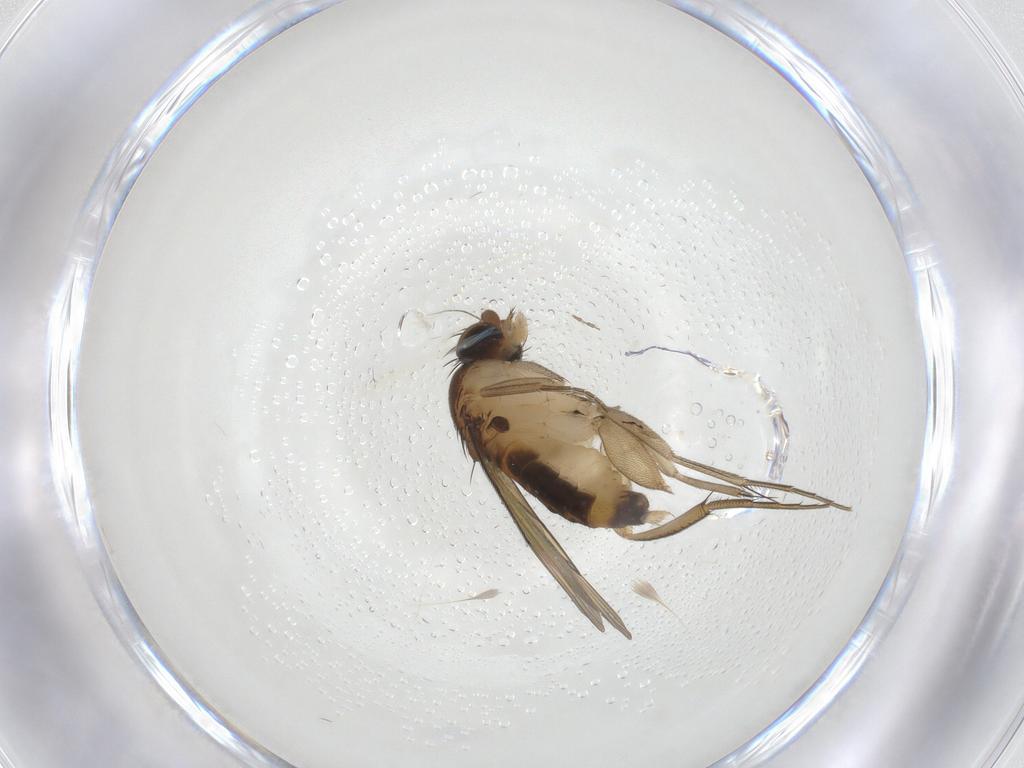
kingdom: Animalia
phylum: Arthropoda
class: Insecta
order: Diptera
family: Phoridae
